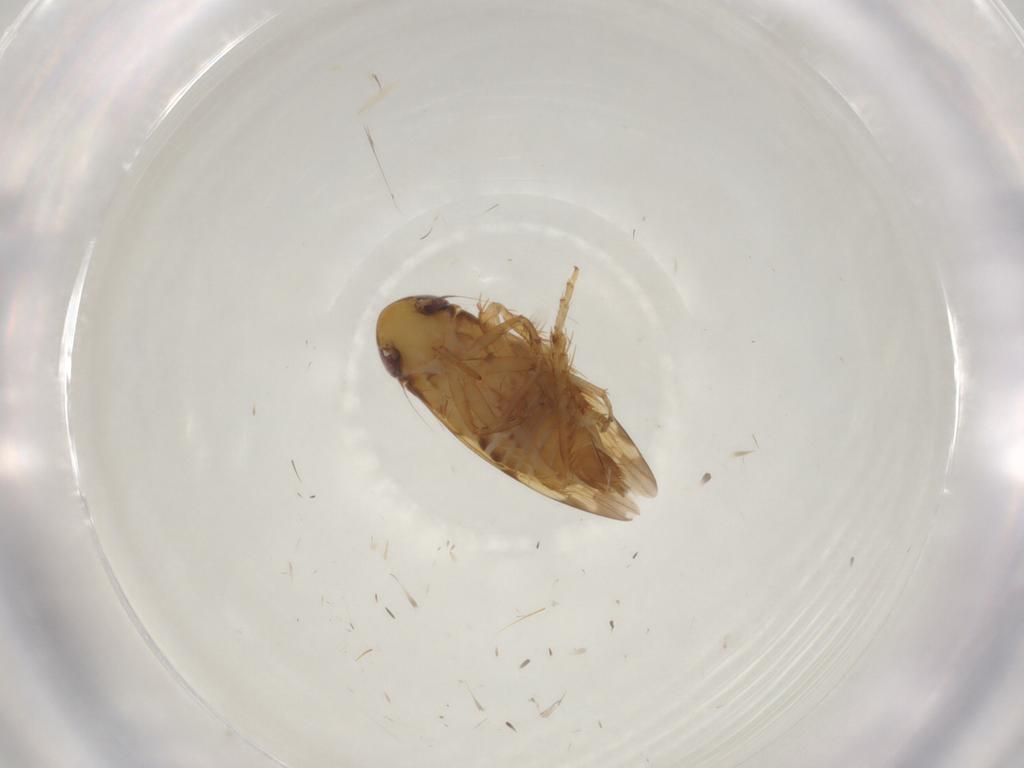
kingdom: Animalia
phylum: Arthropoda
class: Insecta
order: Hemiptera
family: Cicadellidae
